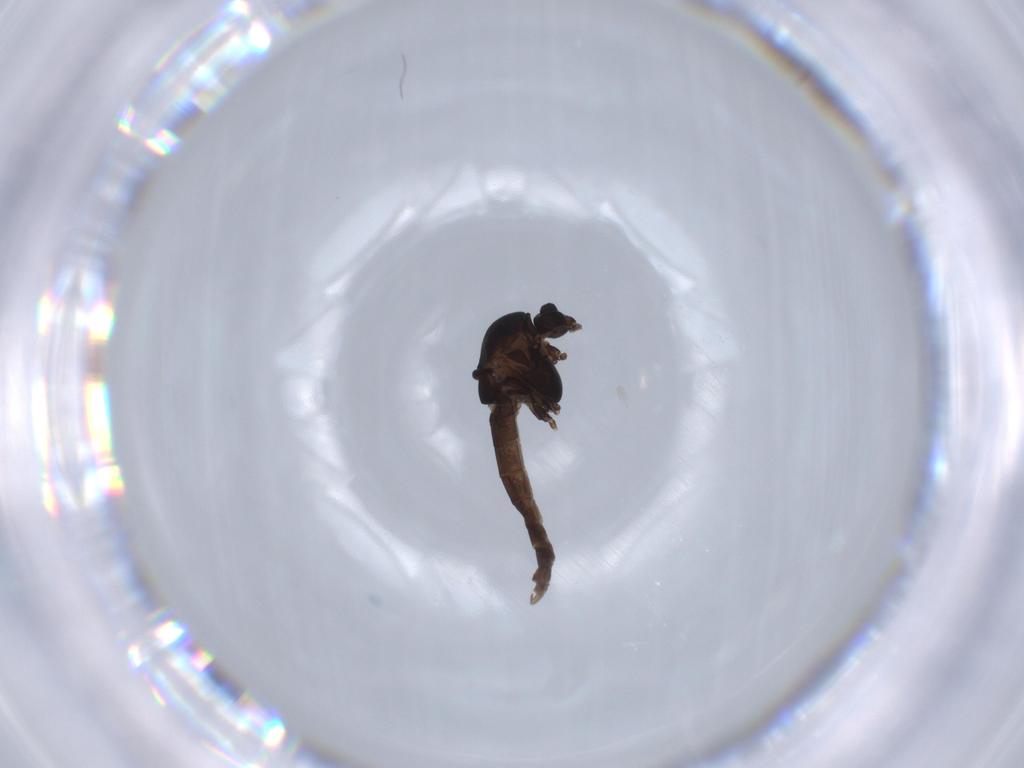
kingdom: Animalia
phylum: Arthropoda
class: Insecta
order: Diptera
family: Chironomidae
